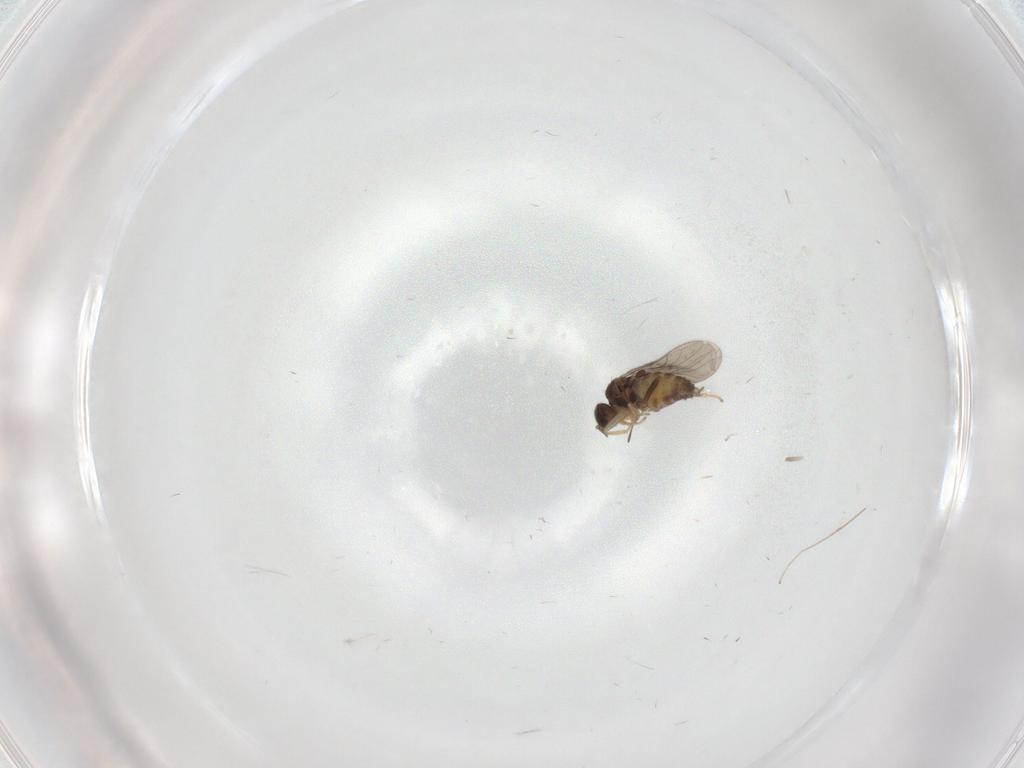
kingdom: Animalia
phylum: Arthropoda
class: Insecta
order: Diptera
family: Hybotidae
